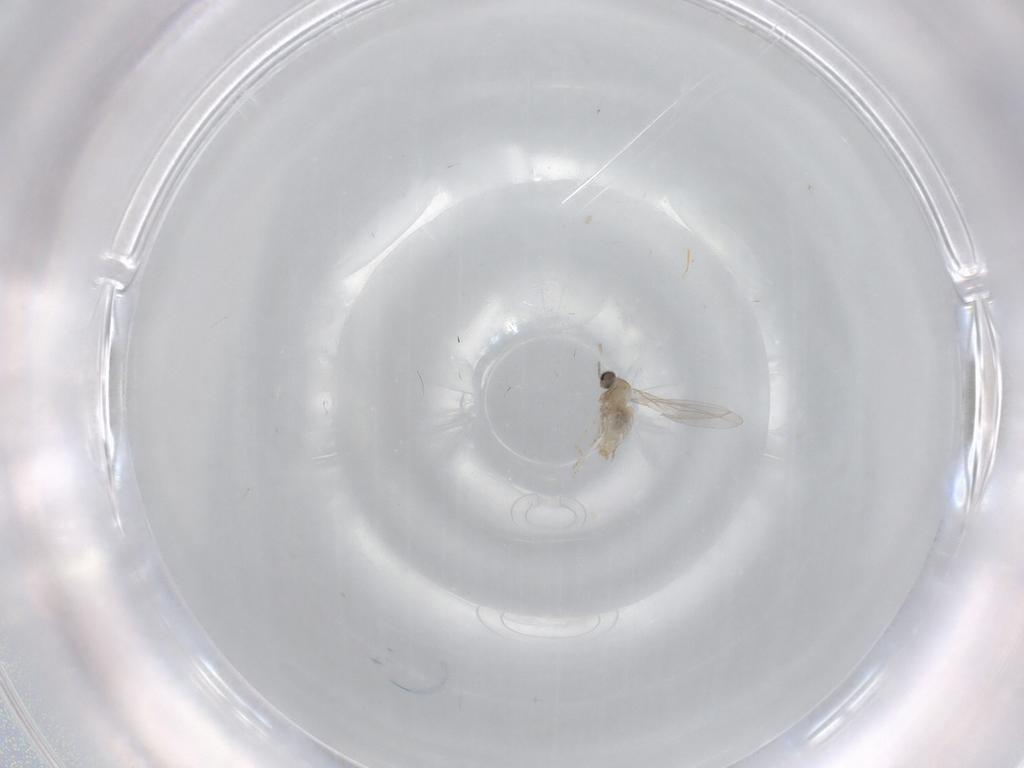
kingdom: Animalia
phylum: Arthropoda
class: Insecta
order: Diptera
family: Cecidomyiidae
